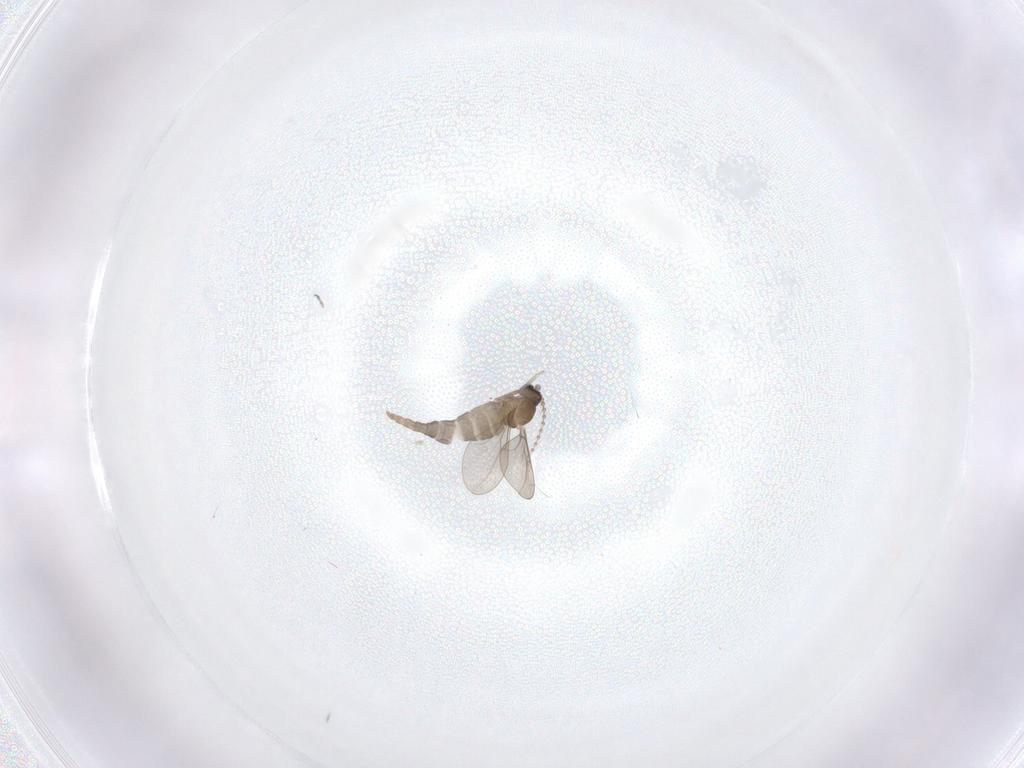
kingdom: Animalia
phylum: Arthropoda
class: Insecta
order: Diptera
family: Cecidomyiidae
